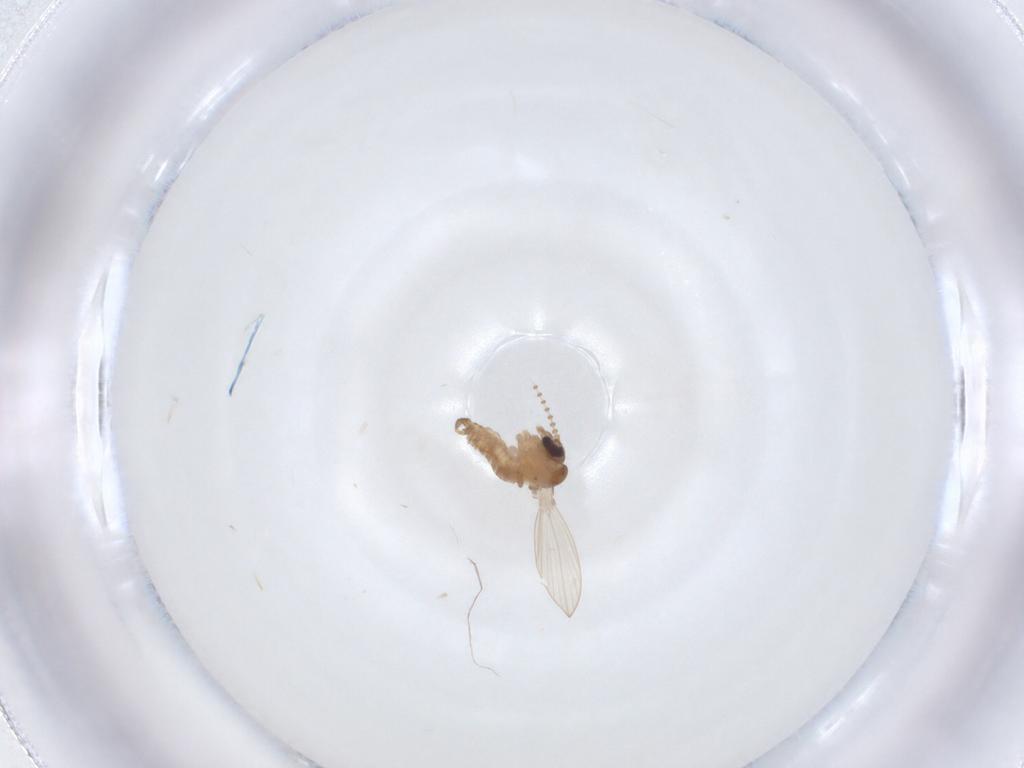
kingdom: Animalia
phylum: Arthropoda
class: Insecta
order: Diptera
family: Psychodidae
